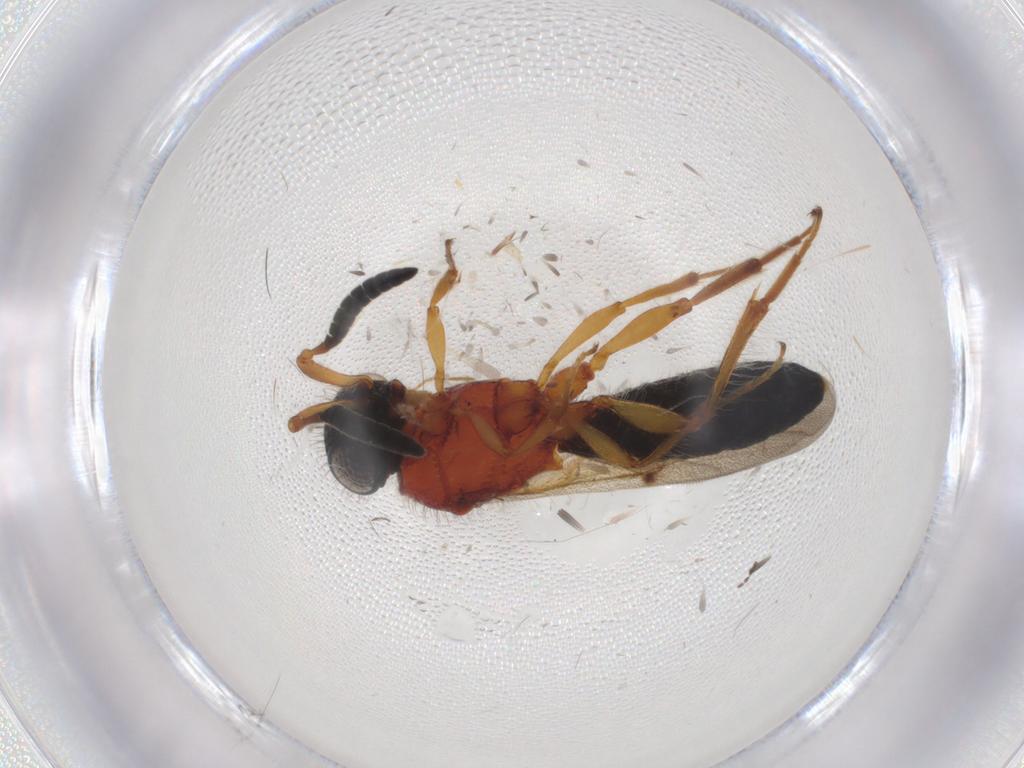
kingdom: Animalia
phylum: Arthropoda
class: Insecta
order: Hymenoptera
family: Scelionidae
